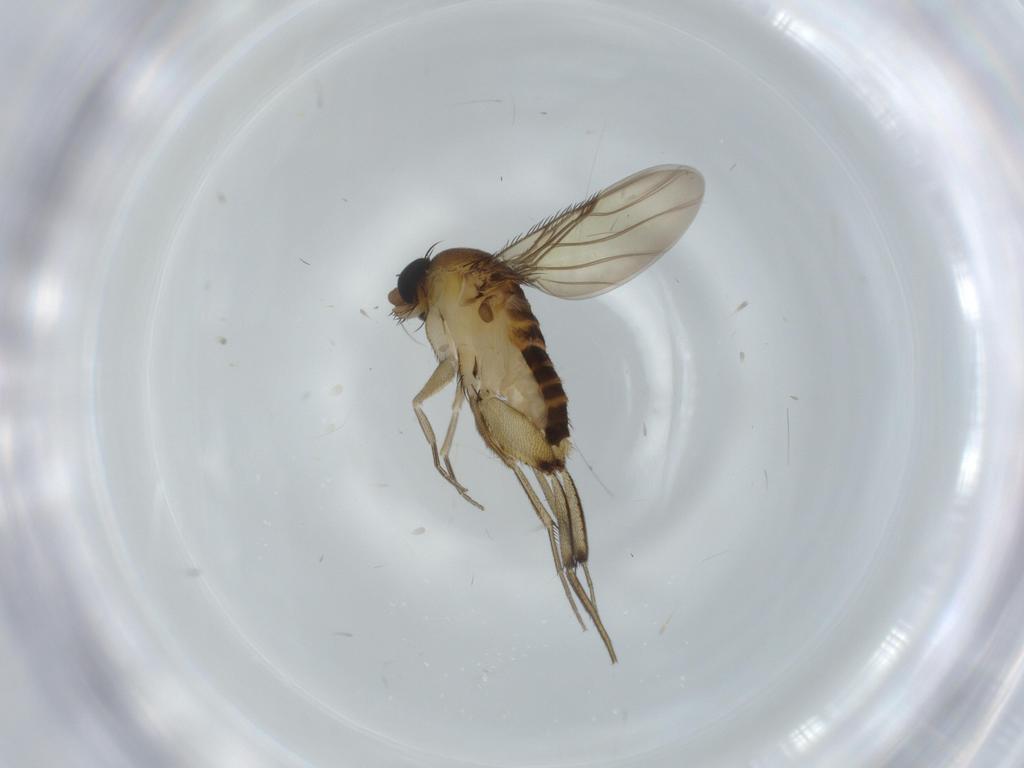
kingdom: Animalia
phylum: Arthropoda
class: Insecta
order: Diptera
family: Phoridae
